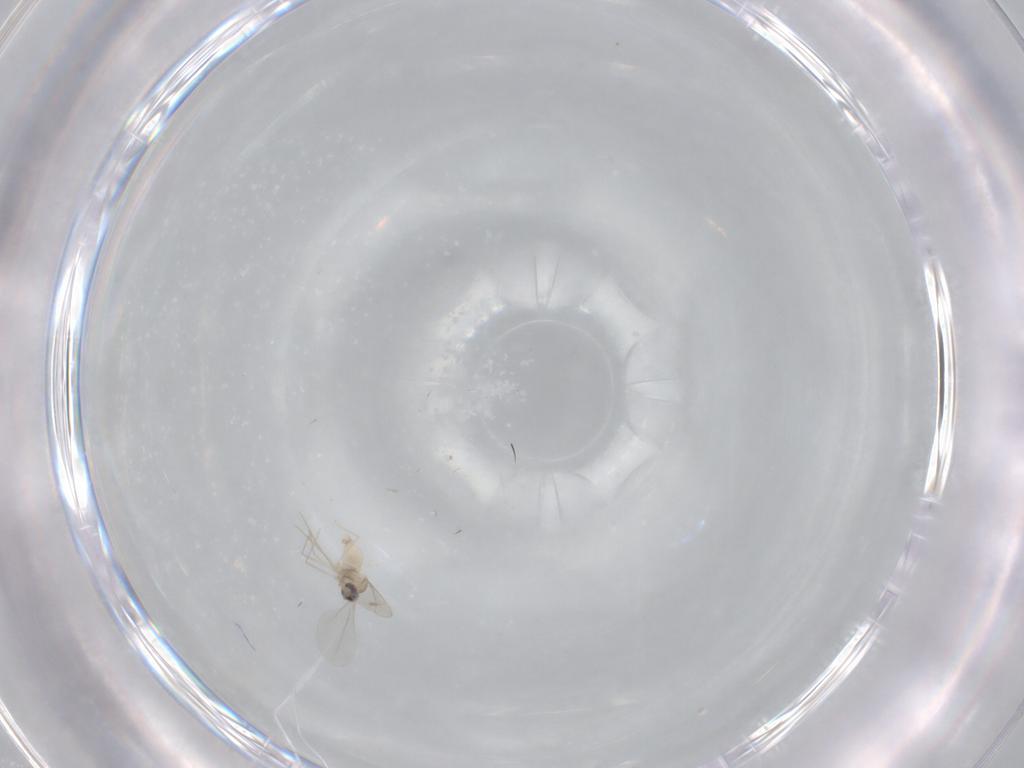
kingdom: Animalia
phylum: Arthropoda
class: Insecta
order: Diptera
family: Cecidomyiidae
